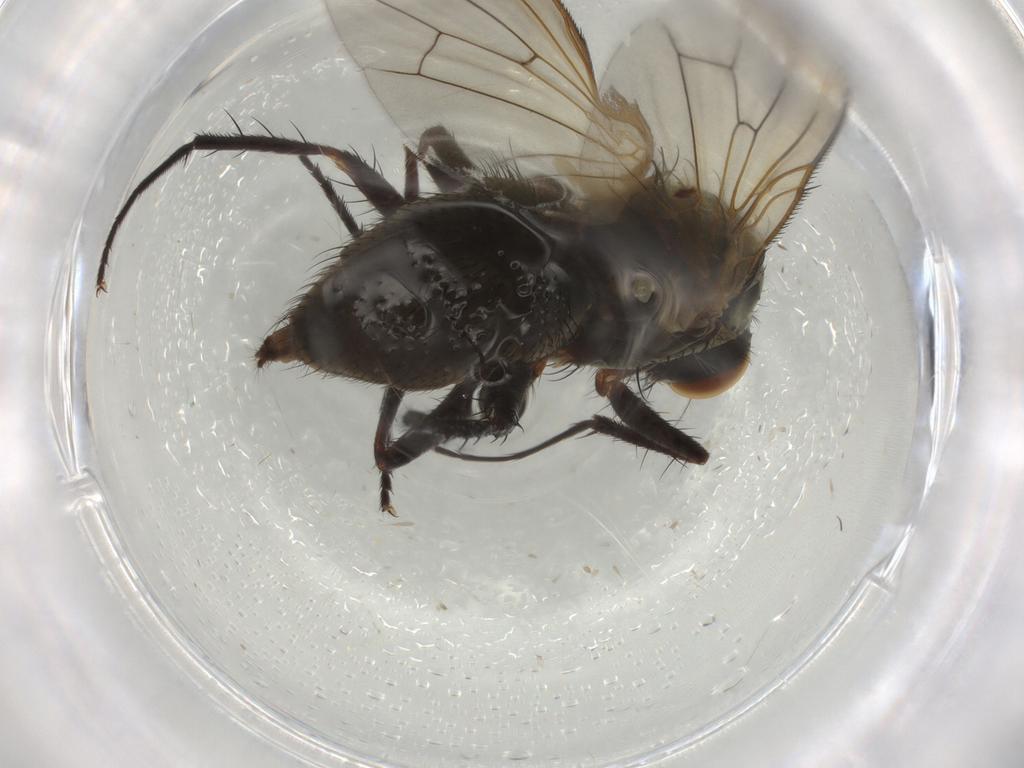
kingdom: Animalia
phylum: Arthropoda
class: Insecta
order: Diptera
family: Anthomyiidae
